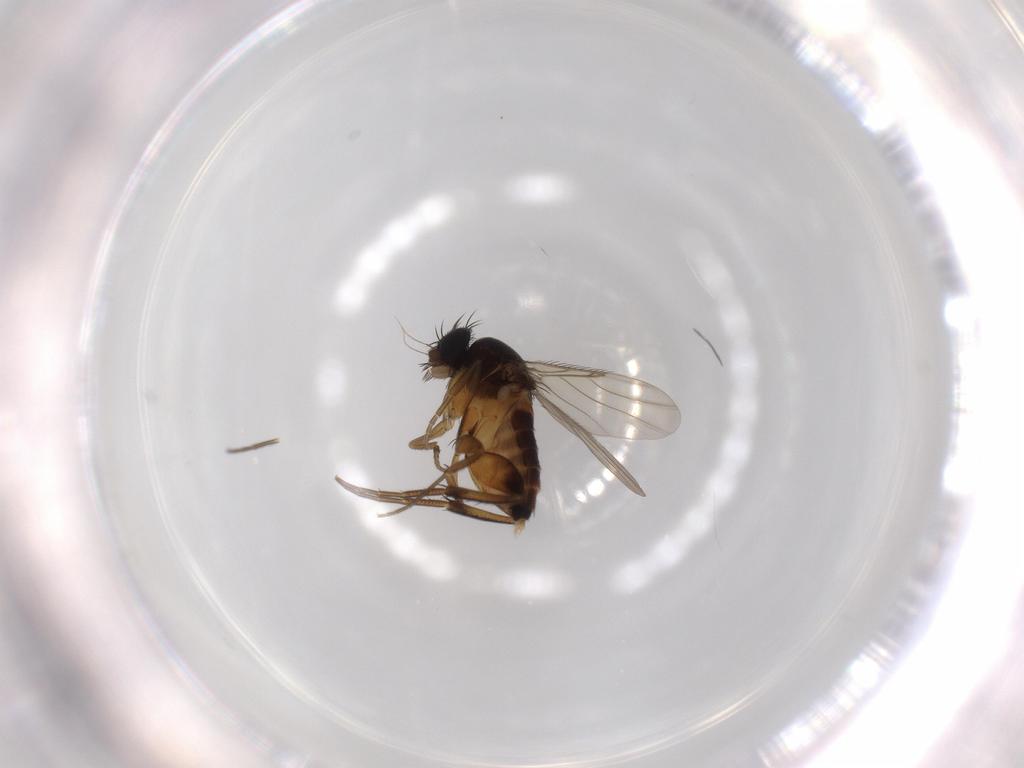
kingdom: Animalia
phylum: Arthropoda
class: Insecta
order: Diptera
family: Phoridae
